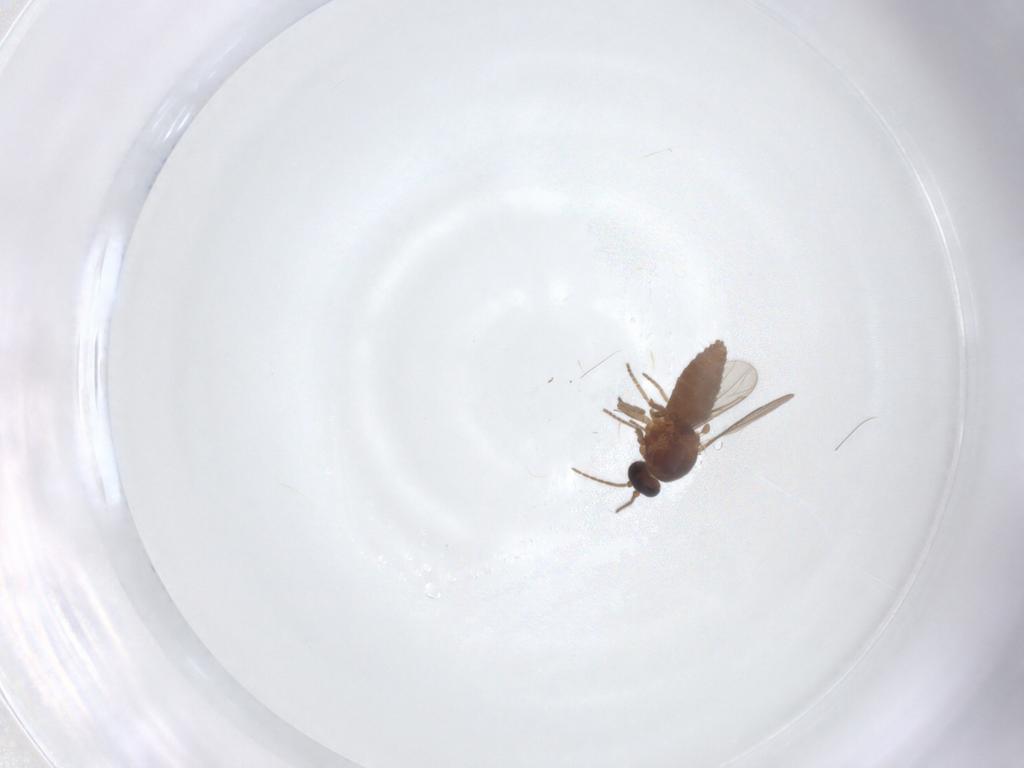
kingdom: Animalia
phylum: Arthropoda
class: Insecta
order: Diptera
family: Ceratopogonidae
